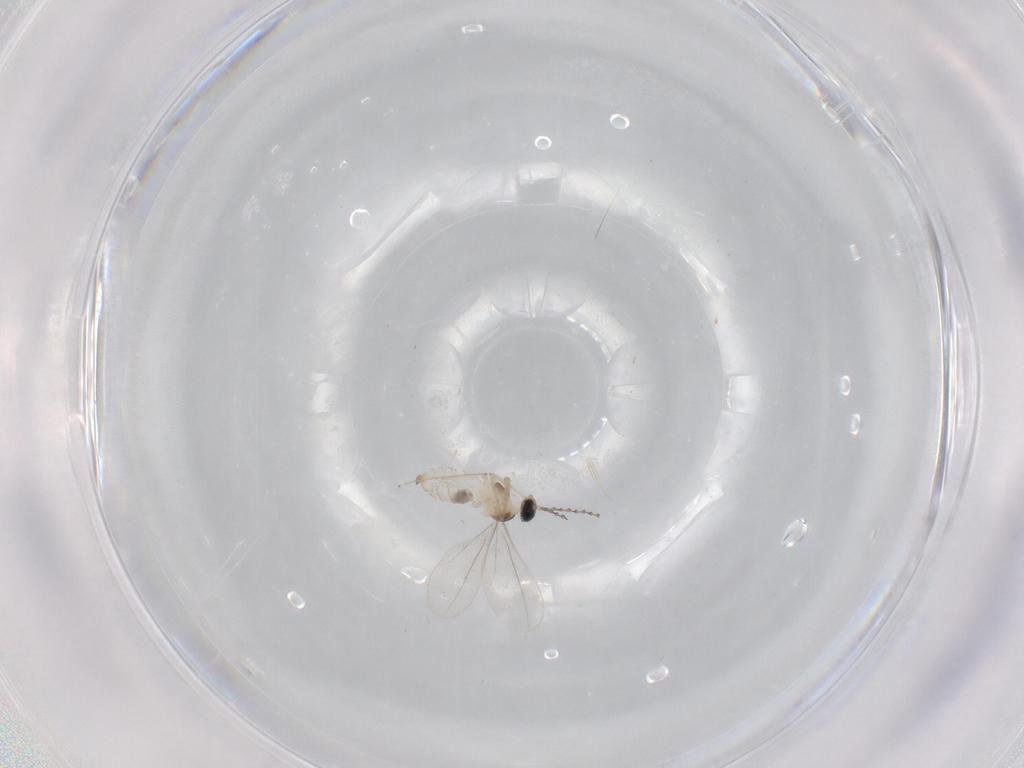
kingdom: Animalia
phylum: Arthropoda
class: Insecta
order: Diptera
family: Cecidomyiidae
